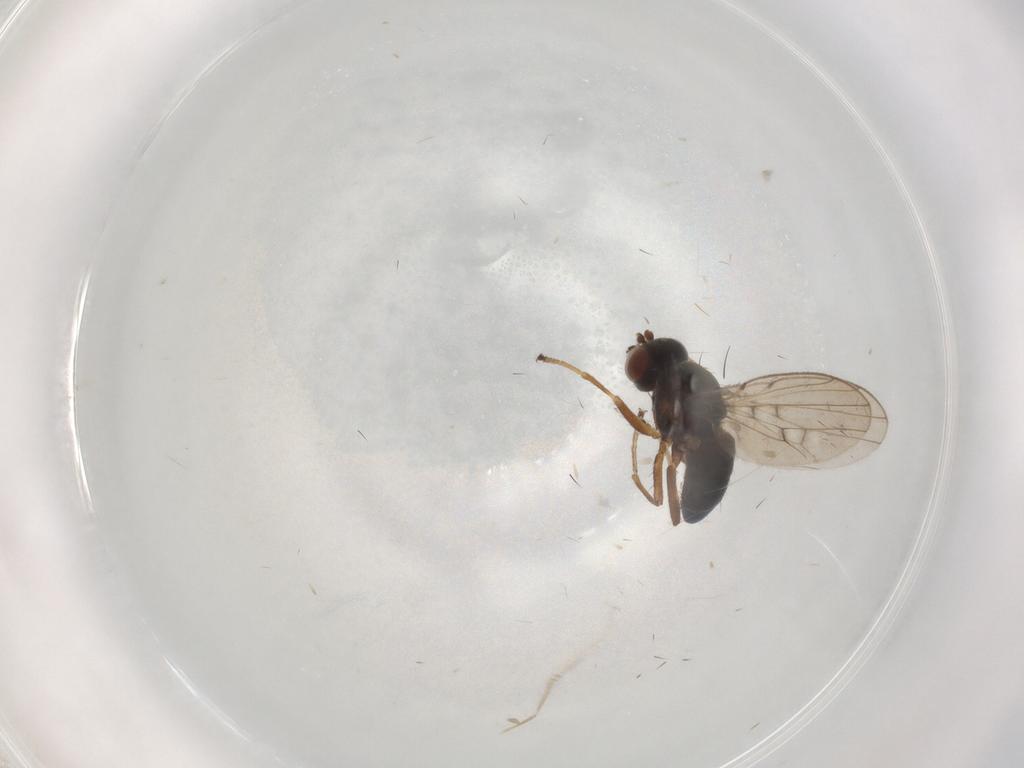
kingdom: Animalia
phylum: Arthropoda
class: Insecta
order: Diptera
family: Ephydridae
